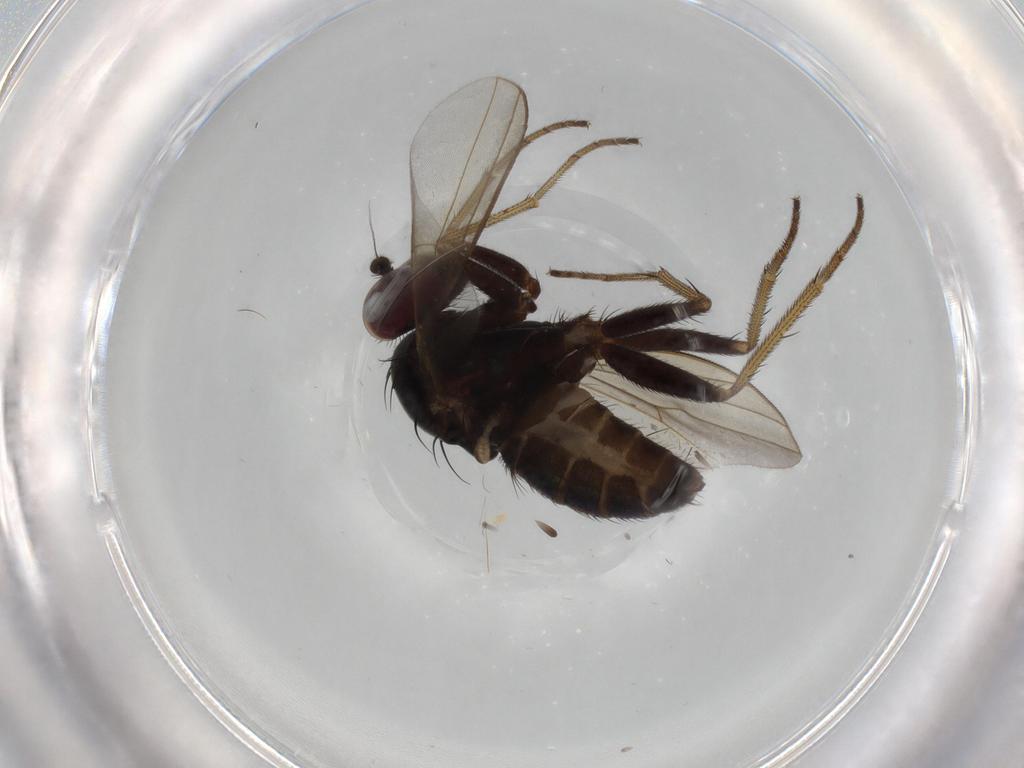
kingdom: Animalia
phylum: Arthropoda
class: Insecta
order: Diptera
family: Dolichopodidae
